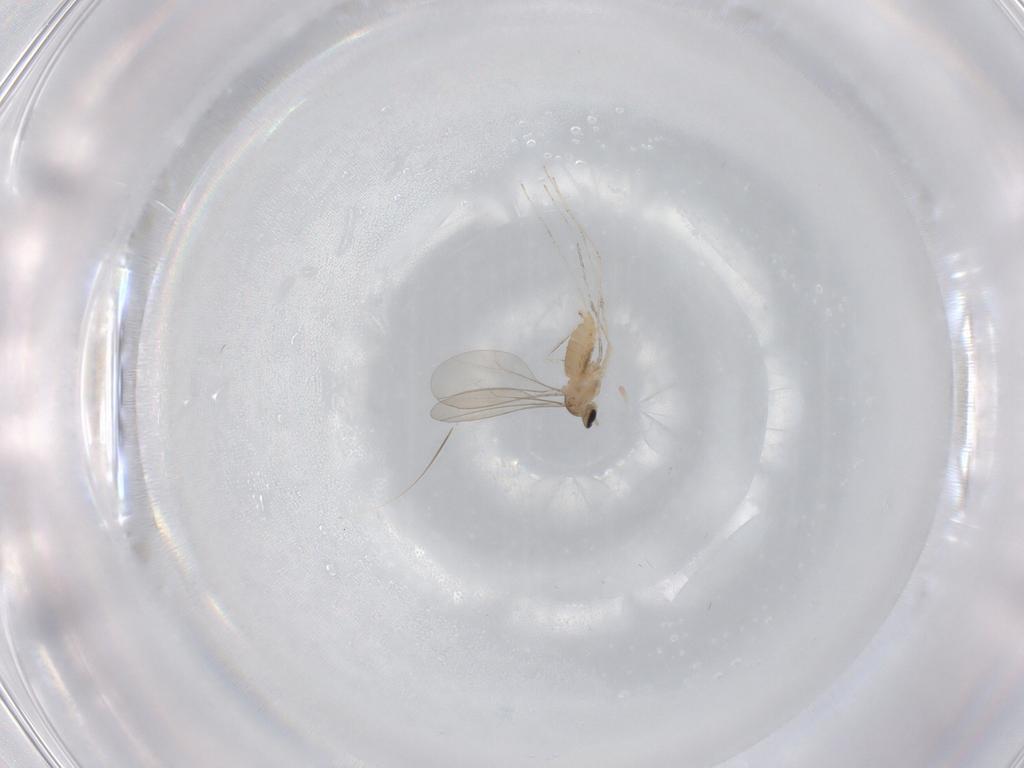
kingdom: Animalia
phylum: Arthropoda
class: Insecta
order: Diptera
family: Cecidomyiidae
